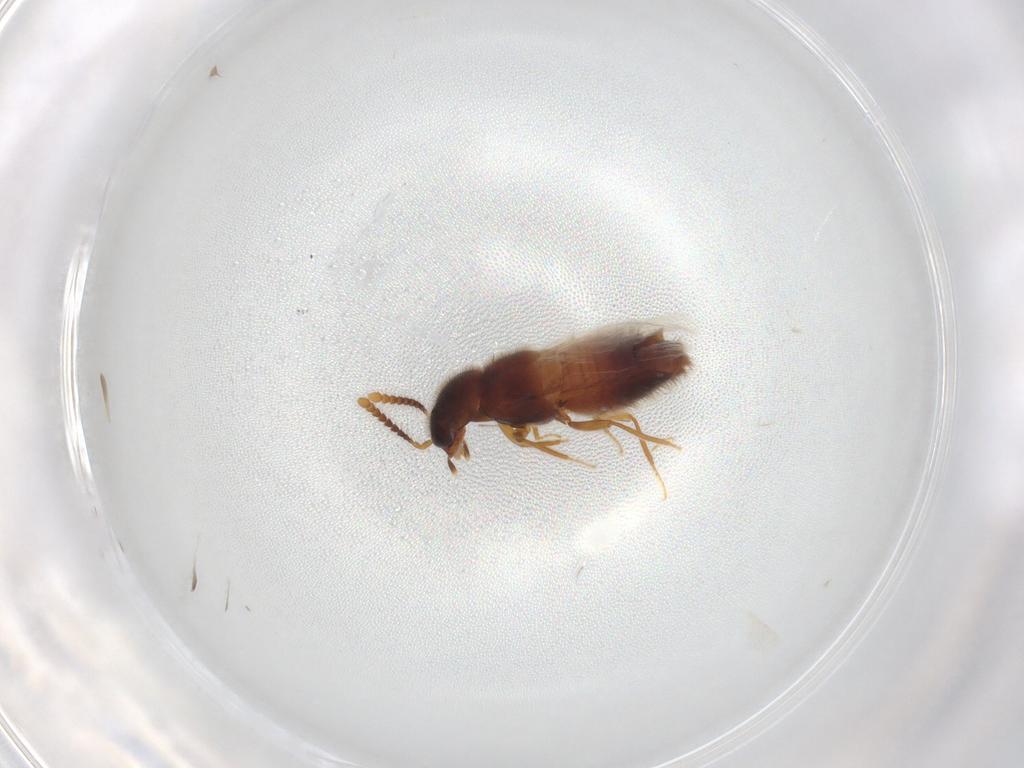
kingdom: Animalia
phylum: Arthropoda
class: Insecta
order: Coleoptera
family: Staphylinidae
